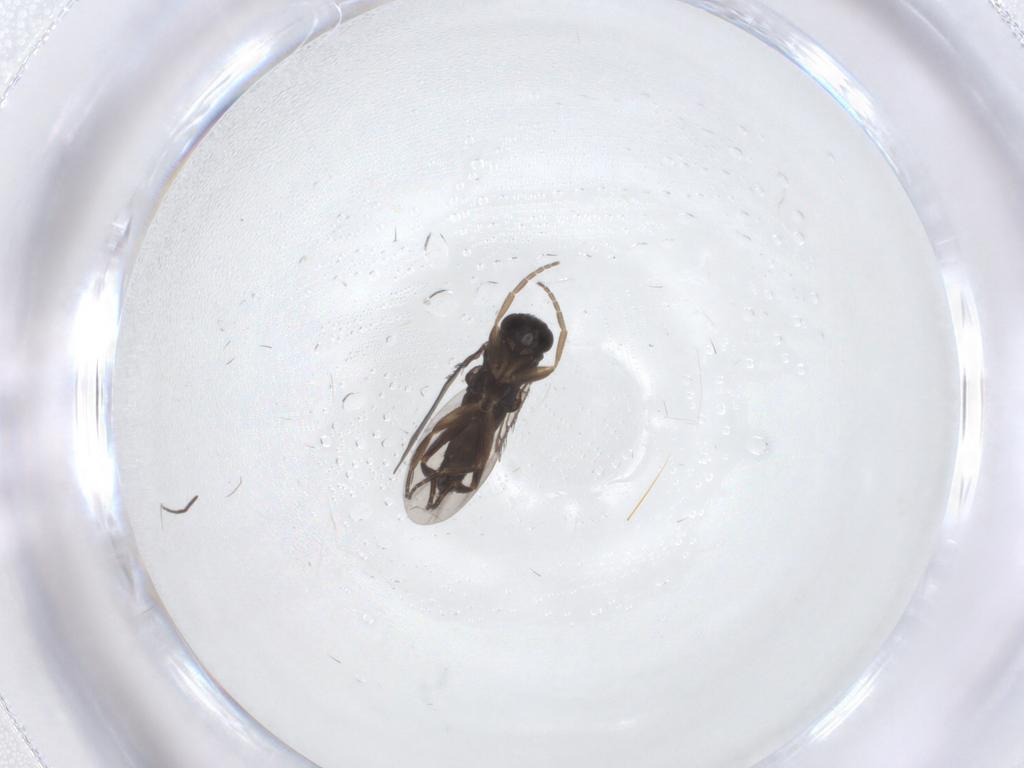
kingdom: Animalia
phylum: Arthropoda
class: Insecta
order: Diptera
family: Phoridae
